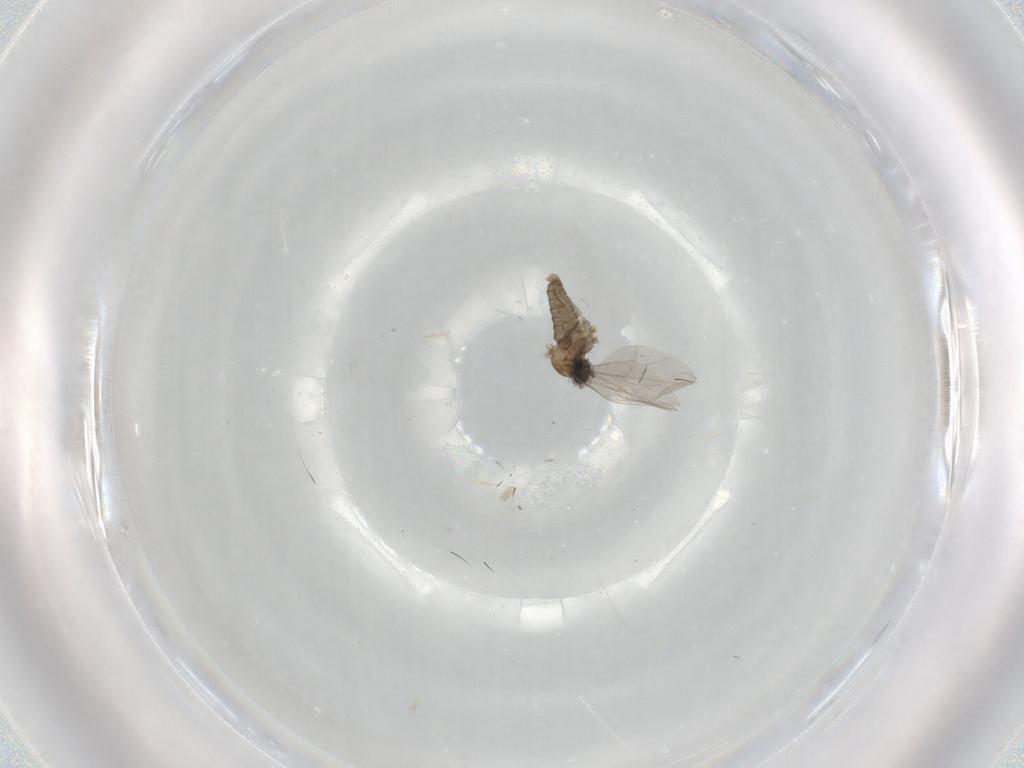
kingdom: Animalia
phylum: Arthropoda
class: Insecta
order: Diptera
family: Cecidomyiidae
